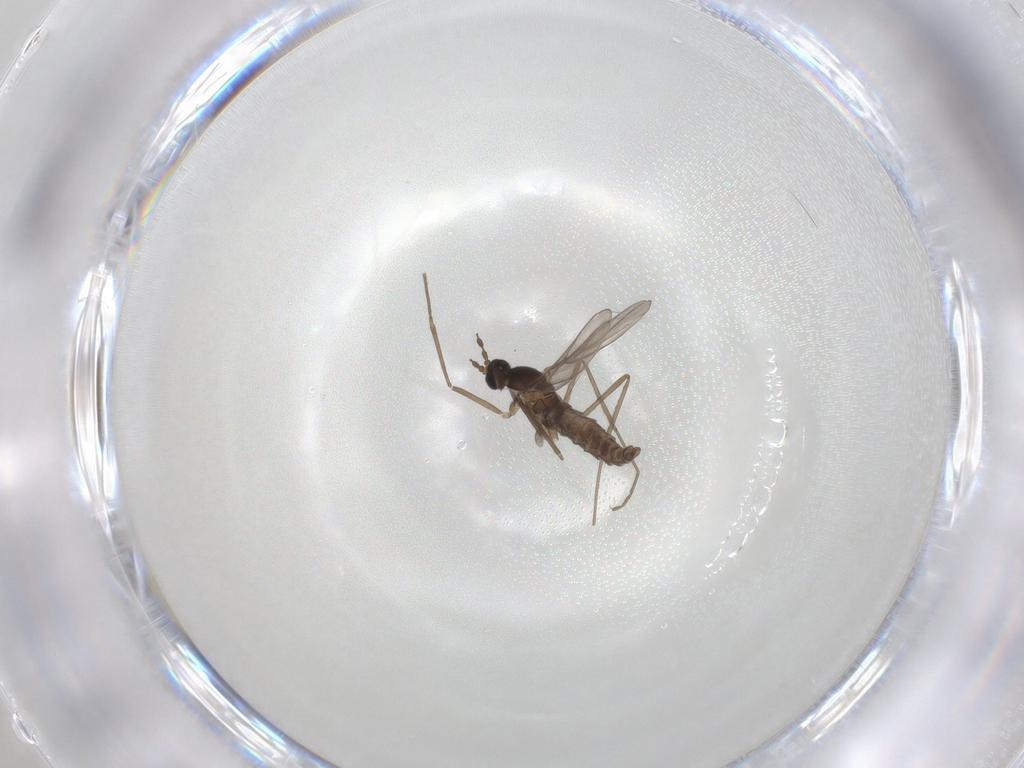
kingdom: Animalia
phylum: Arthropoda
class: Insecta
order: Diptera
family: Cecidomyiidae
